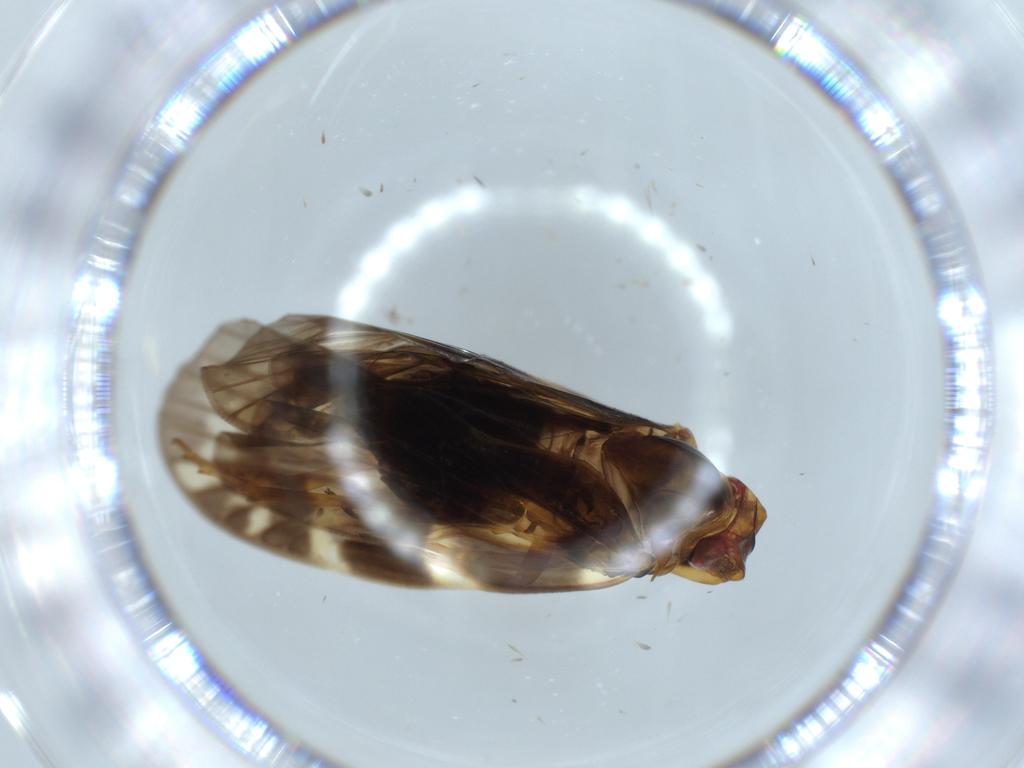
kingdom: Animalia
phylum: Arthropoda
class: Insecta
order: Hemiptera
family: Cixiidae
